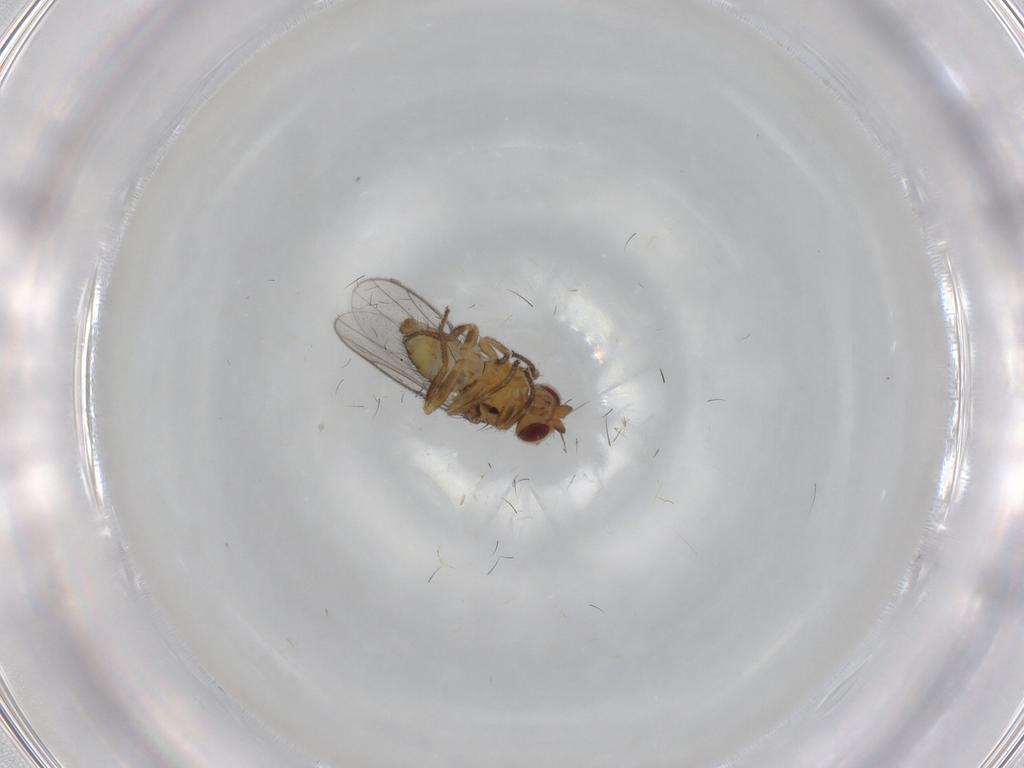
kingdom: Animalia
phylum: Arthropoda
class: Insecta
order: Diptera
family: Chloropidae
